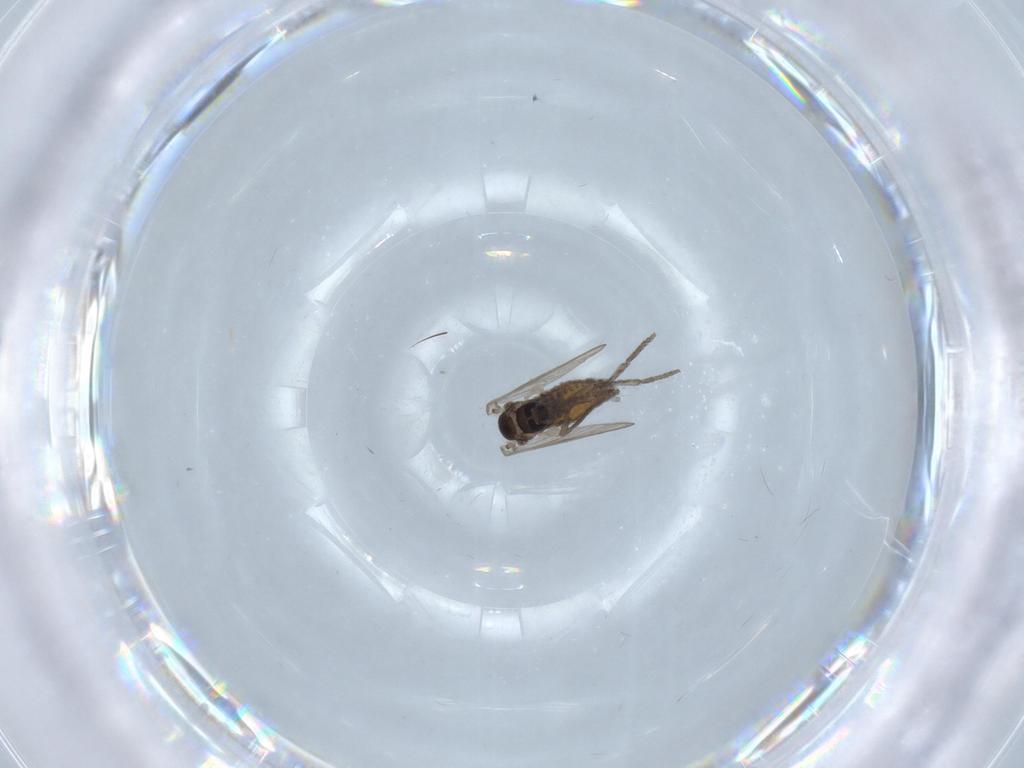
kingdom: Animalia
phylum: Arthropoda
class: Insecta
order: Diptera
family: Psychodidae
